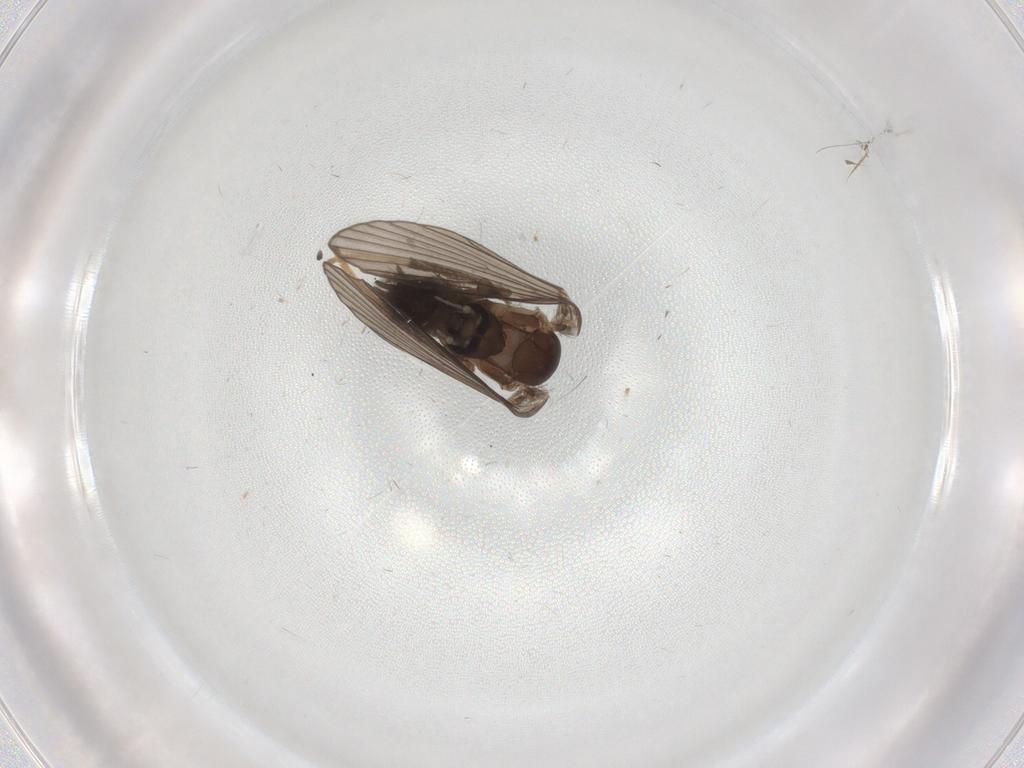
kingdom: Animalia
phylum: Arthropoda
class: Insecta
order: Diptera
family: Psychodidae
